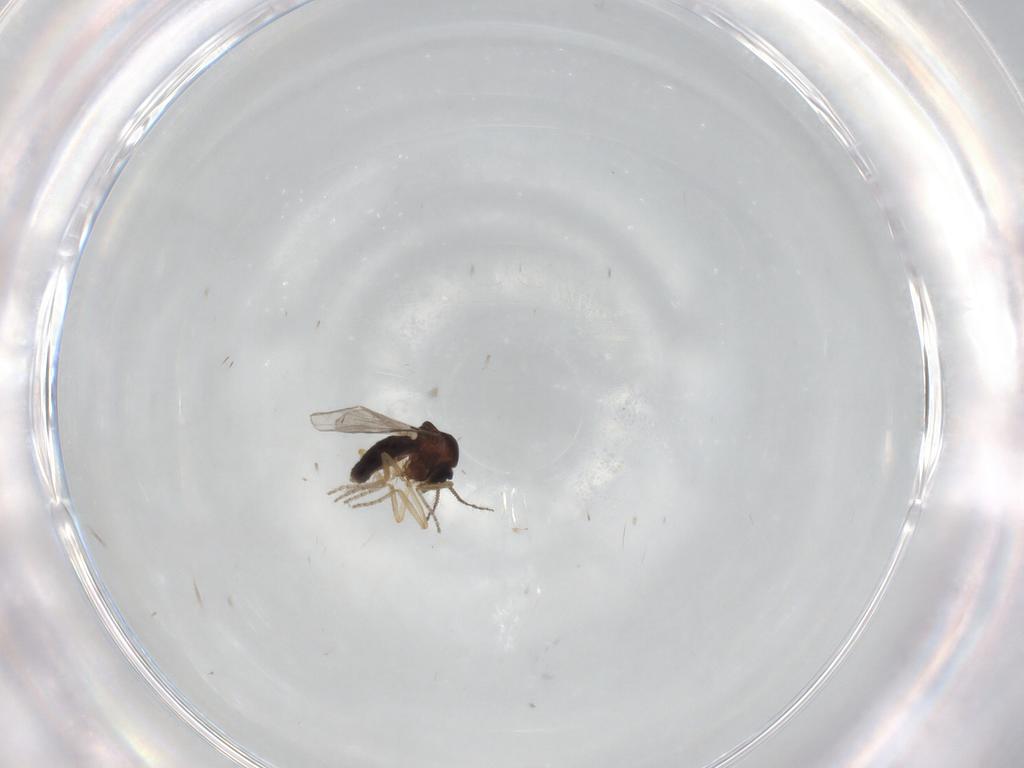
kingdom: Animalia
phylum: Arthropoda
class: Insecta
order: Diptera
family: Ceratopogonidae
